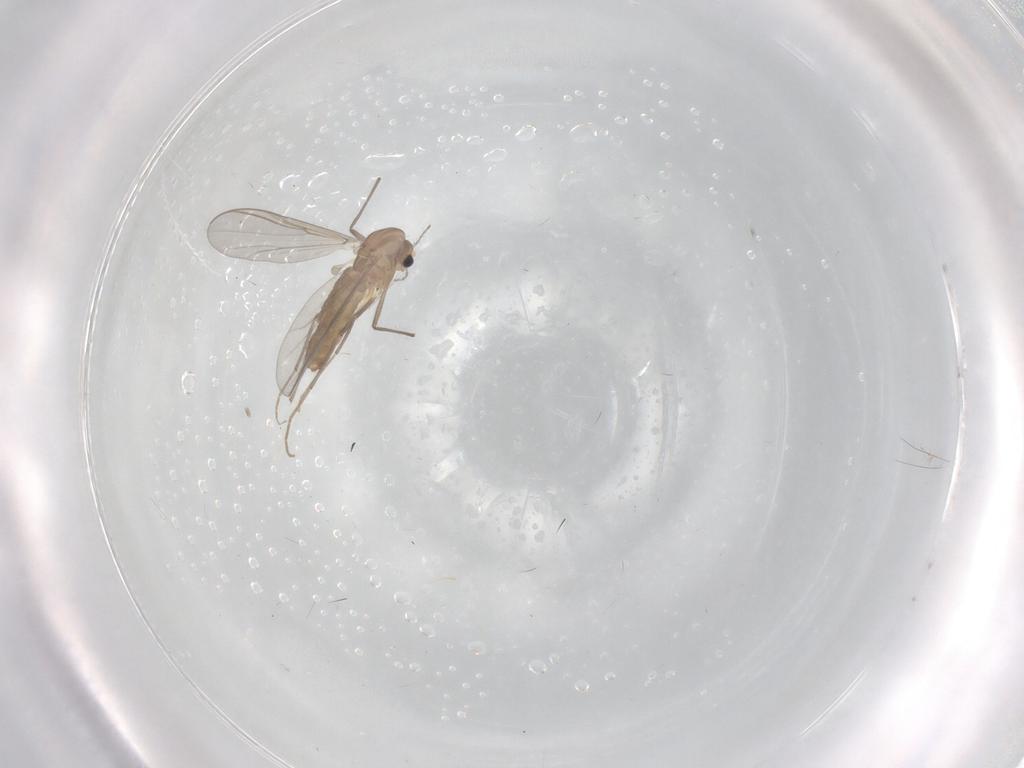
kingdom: Animalia
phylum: Arthropoda
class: Insecta
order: Diptera
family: Chironomidae
